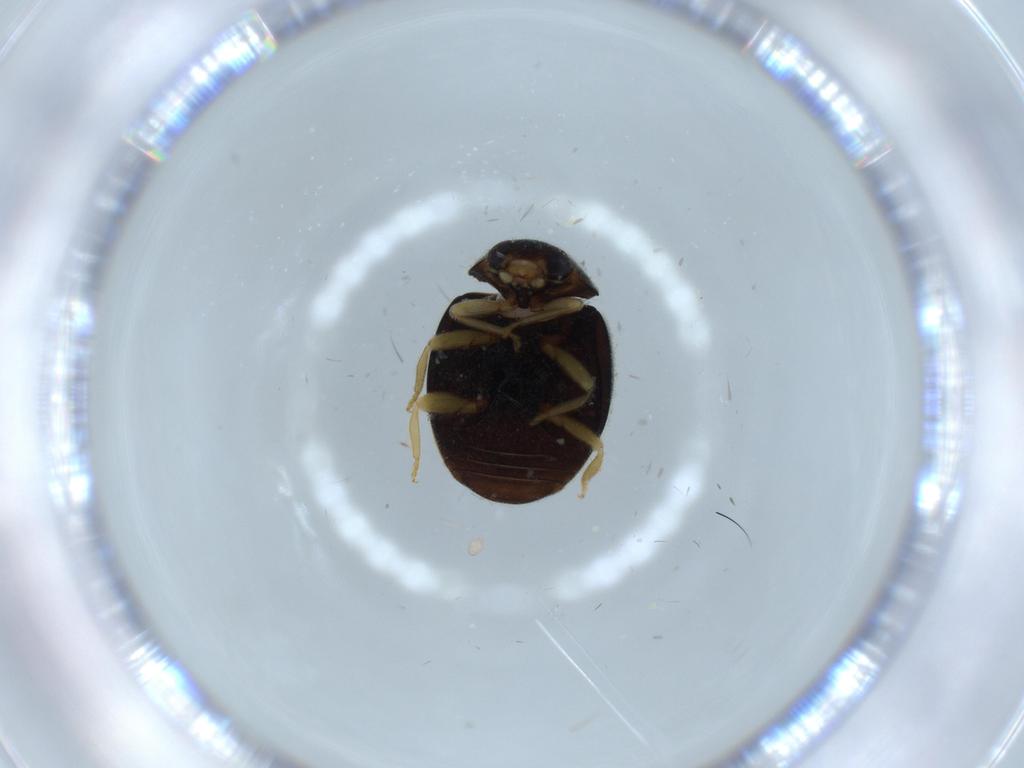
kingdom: Animalia
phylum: Arthropoda
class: Insecta
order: Coleoptera
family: Coccinellidae
